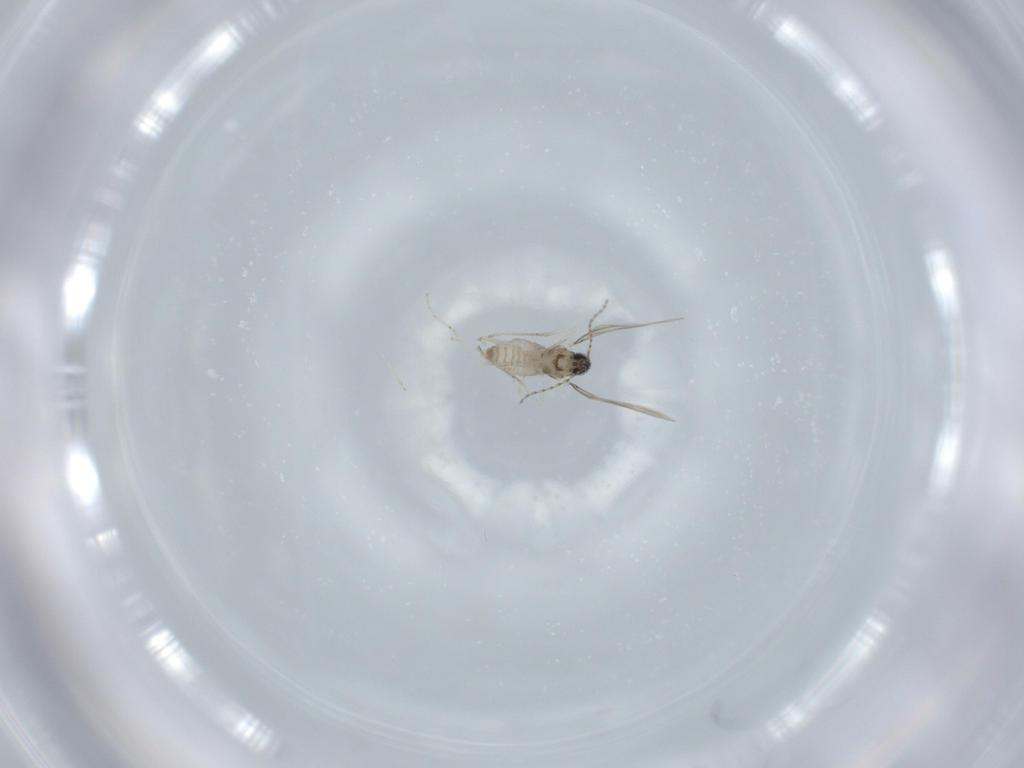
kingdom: Animalia
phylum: Arthropoda
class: Insecta
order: Diptera
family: Cecidomyiidae
